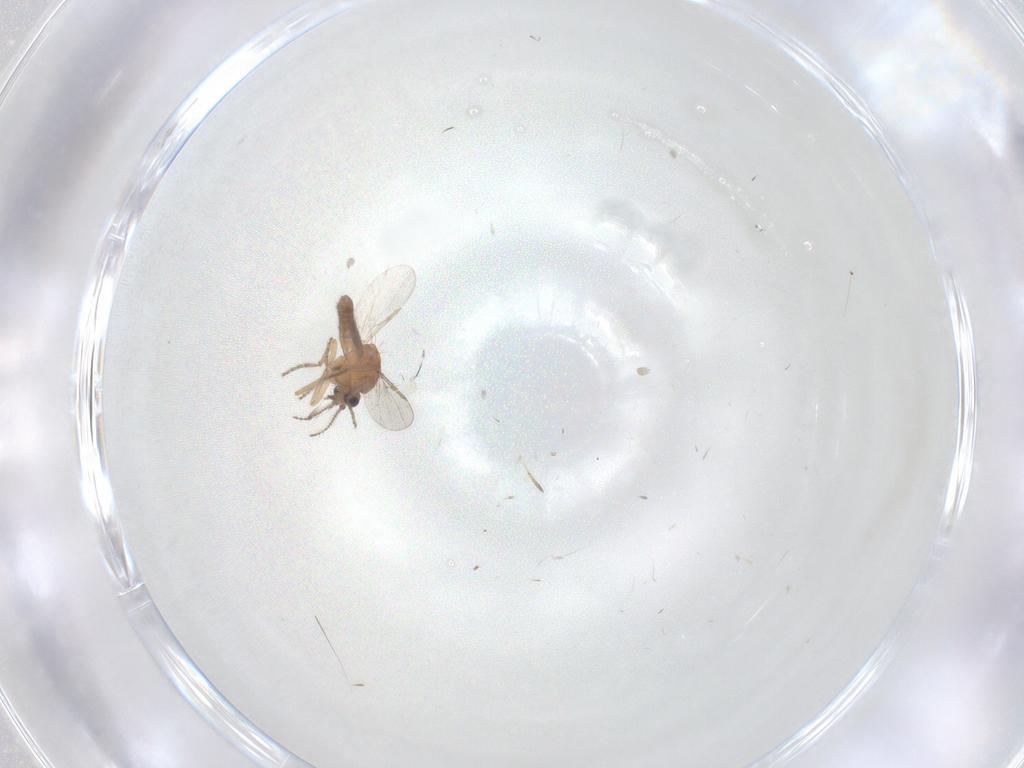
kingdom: Animalia
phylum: Arthropoda
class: Insecta
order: Diptera
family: Ceratopogonidae
